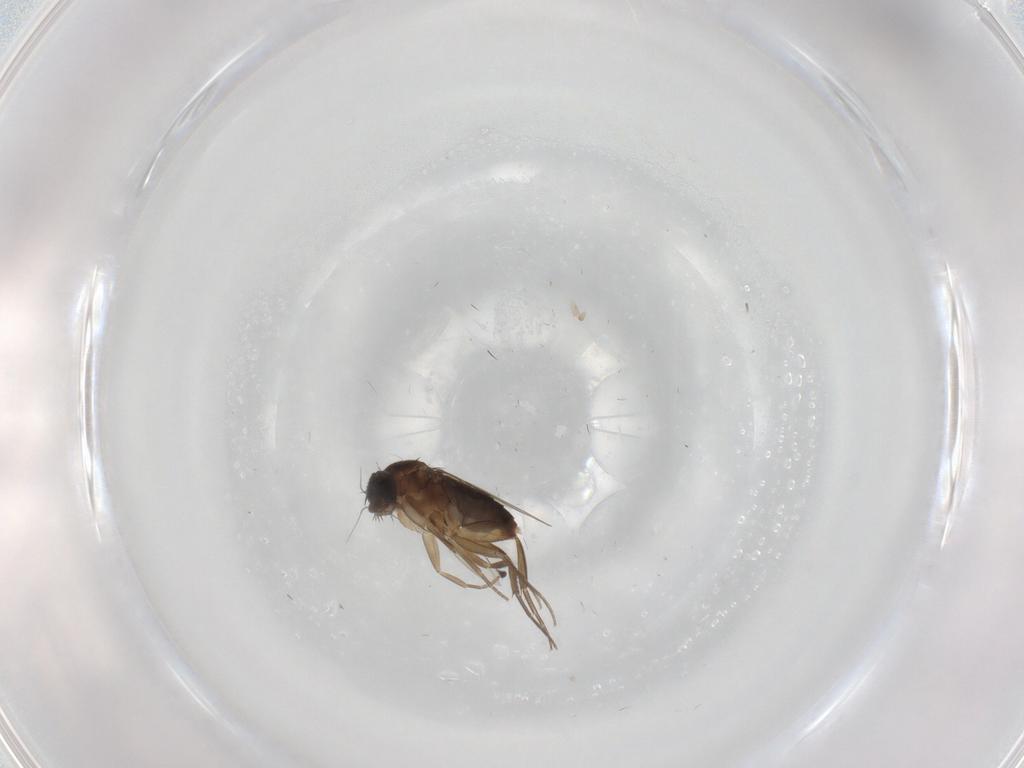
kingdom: Animalia
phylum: Arthropoda
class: Insecta
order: Diptera
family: Phoridae
